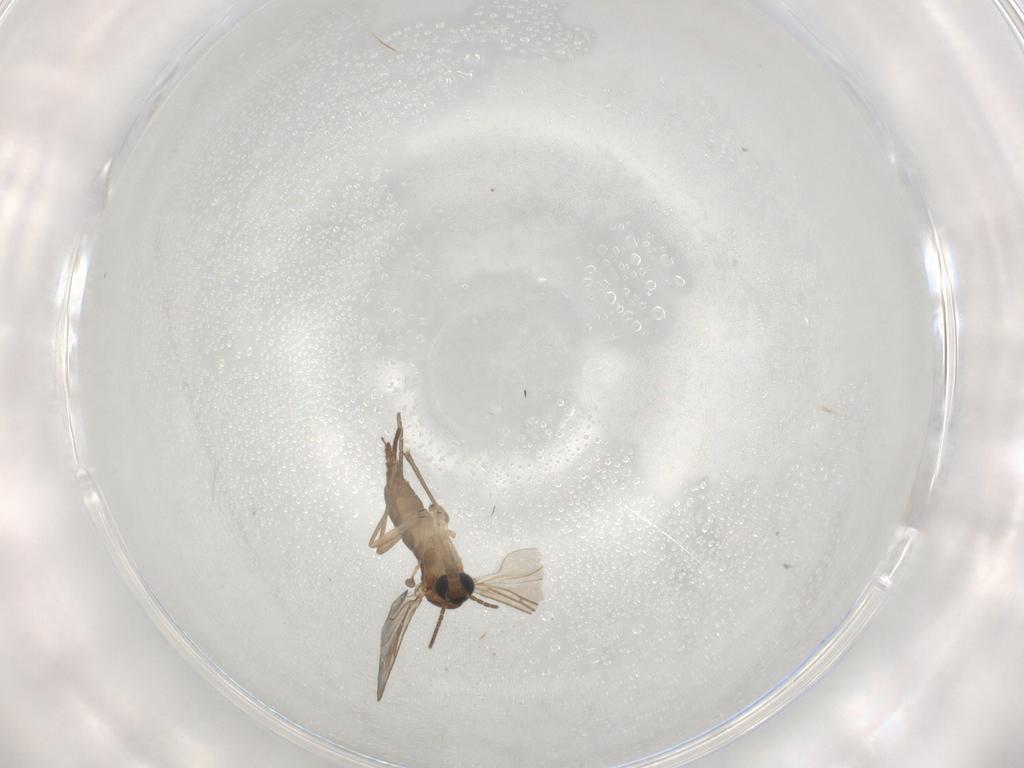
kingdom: Animalia
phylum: Arthropoda
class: Insecta
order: Diptera
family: Sciaridae
